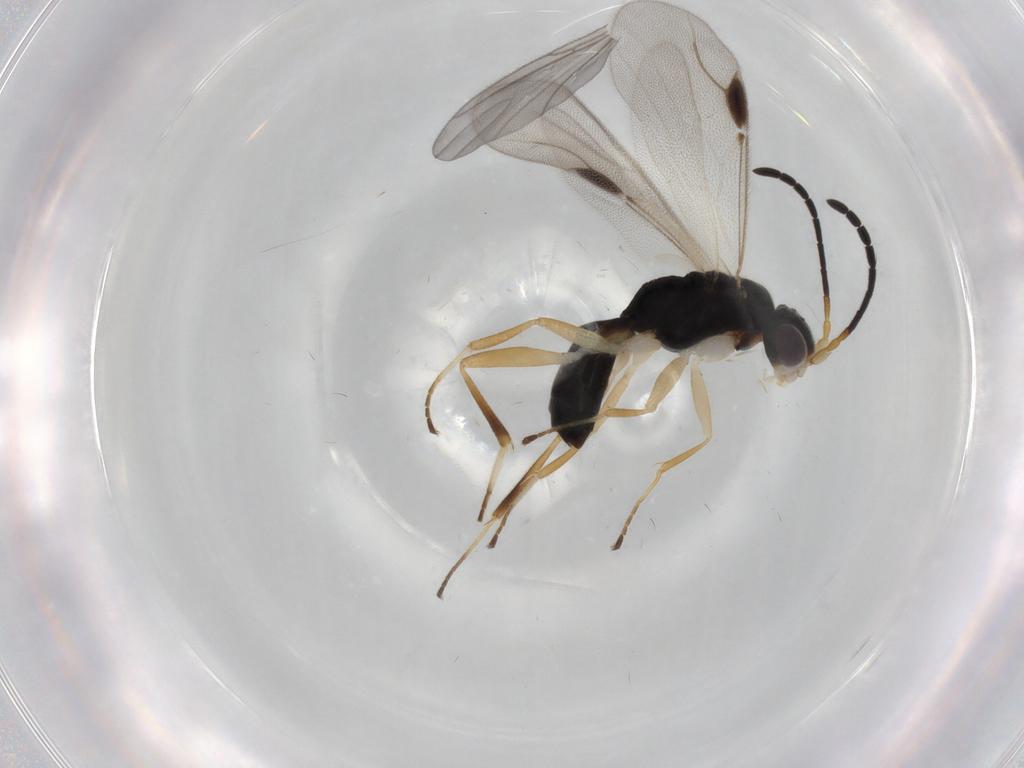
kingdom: Animalia
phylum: Arthropoda
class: Insecta
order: Hymenoptera
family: Dryinidae
